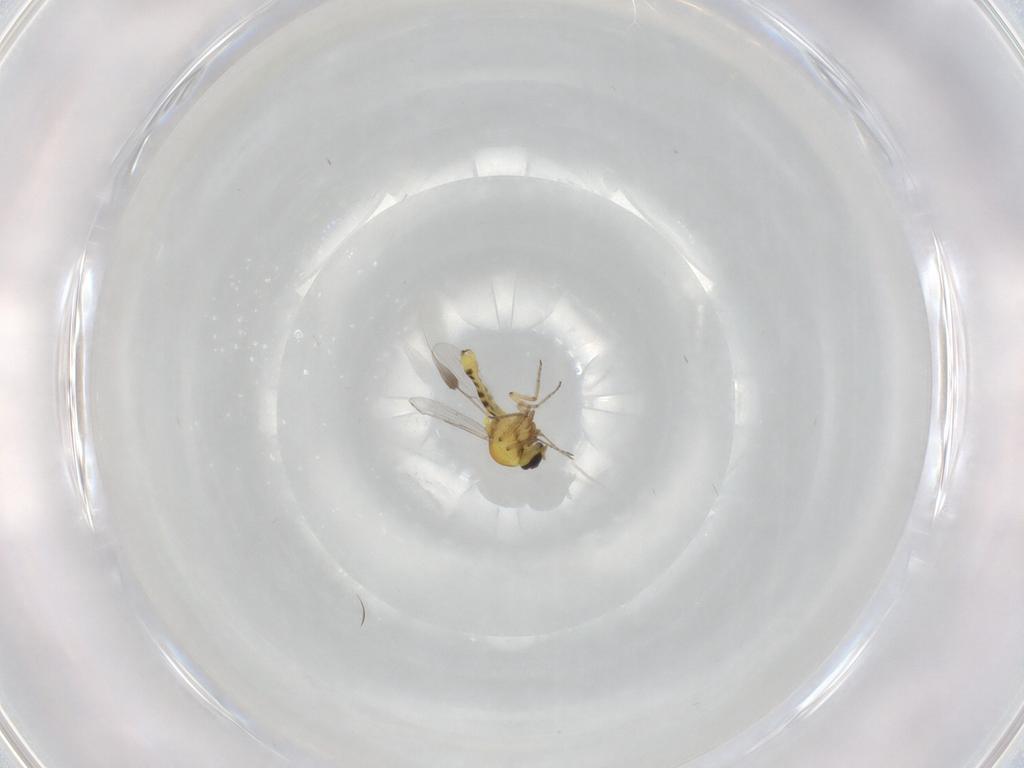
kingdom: Animalia
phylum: Arthropoda
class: Insecta
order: Diptera
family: Ceratopogonidae
